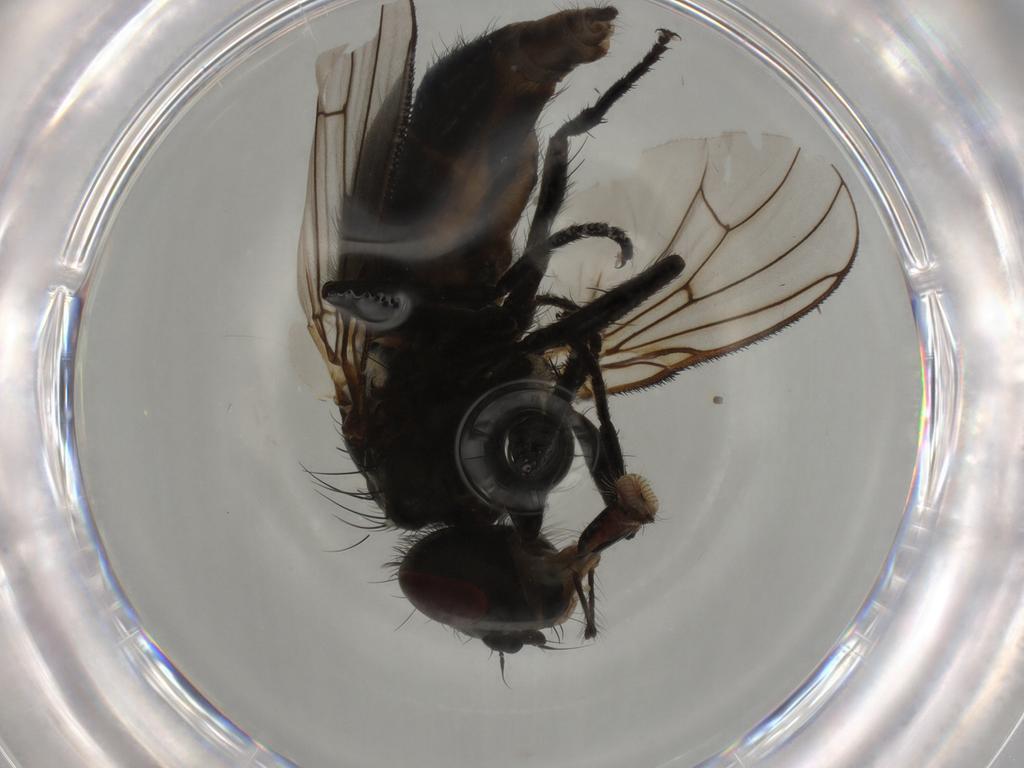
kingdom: Animalia
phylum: Arthropoda
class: Insecta
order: Diptera
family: Muscidae
